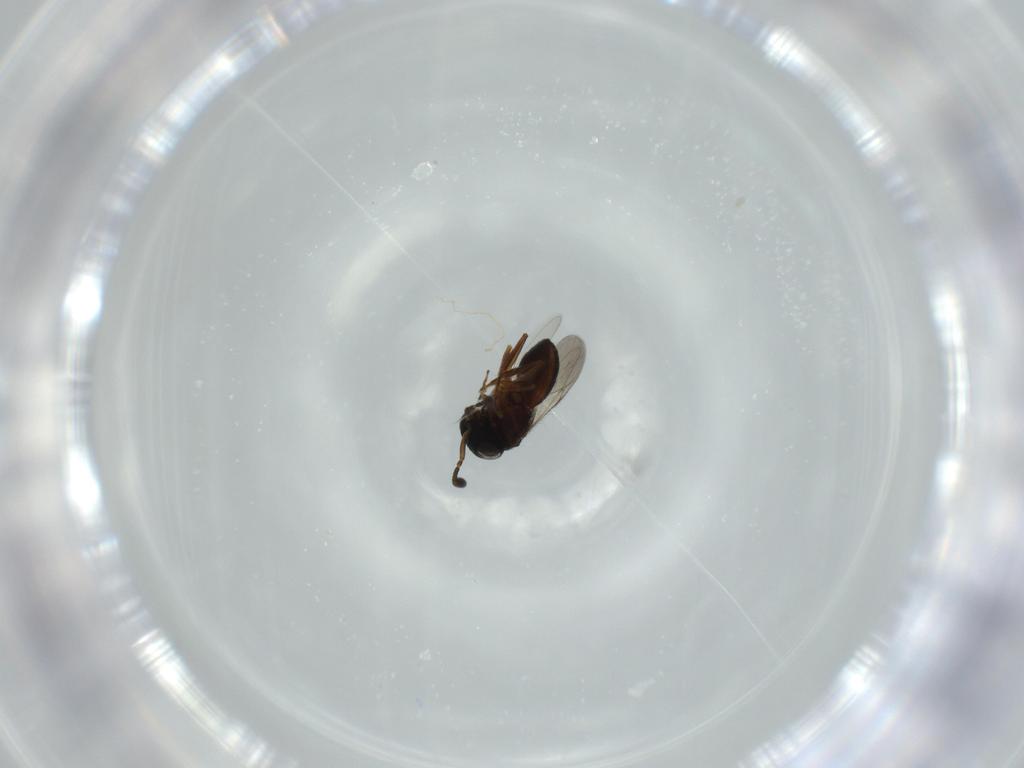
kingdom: Animalia
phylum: Arthropoda
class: Insecta
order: Hymenoptera
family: Scelionidae
